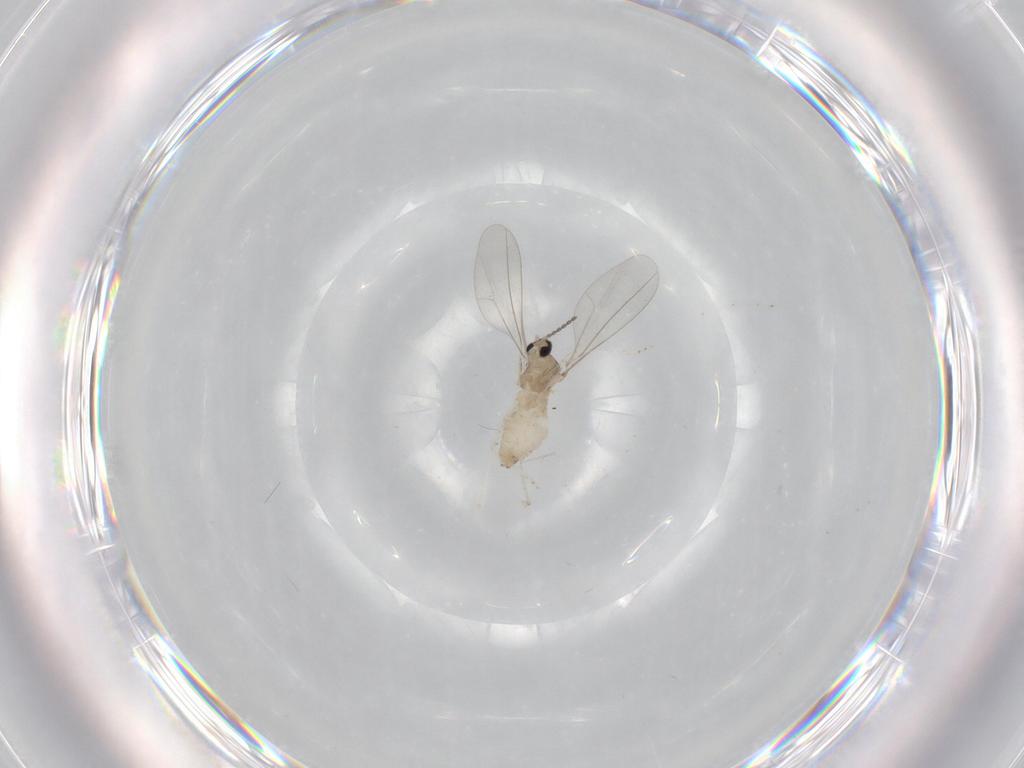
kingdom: Animalia
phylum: Arthropoda
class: Insecta
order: Diptera
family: Cecidomyiidae
